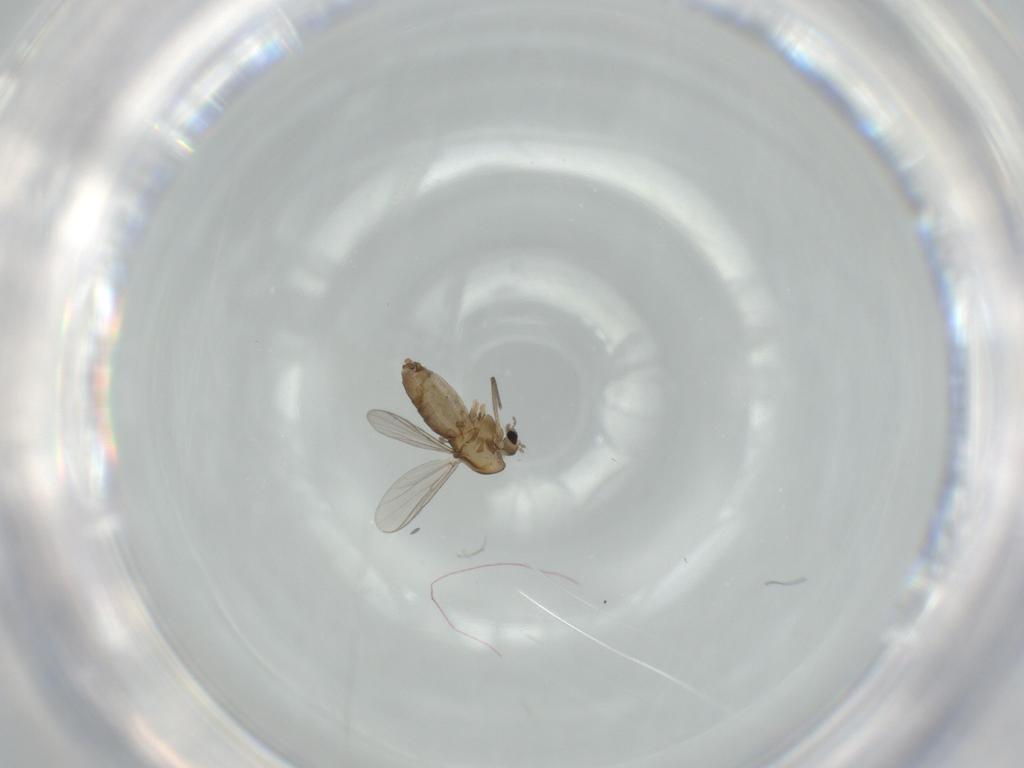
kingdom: Animalia
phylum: Arthropoda
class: Insecta
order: Diptera
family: Chironomidae
